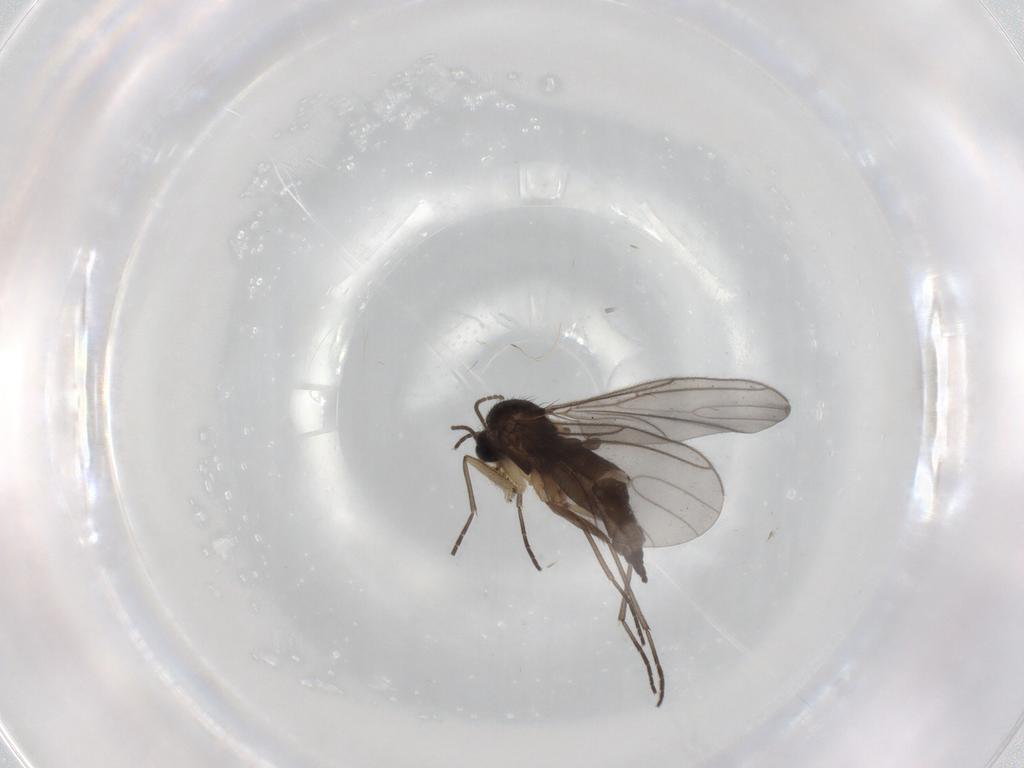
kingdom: Animalia
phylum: Arthropoda
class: Insecta
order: Diptera
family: Sciaridae
